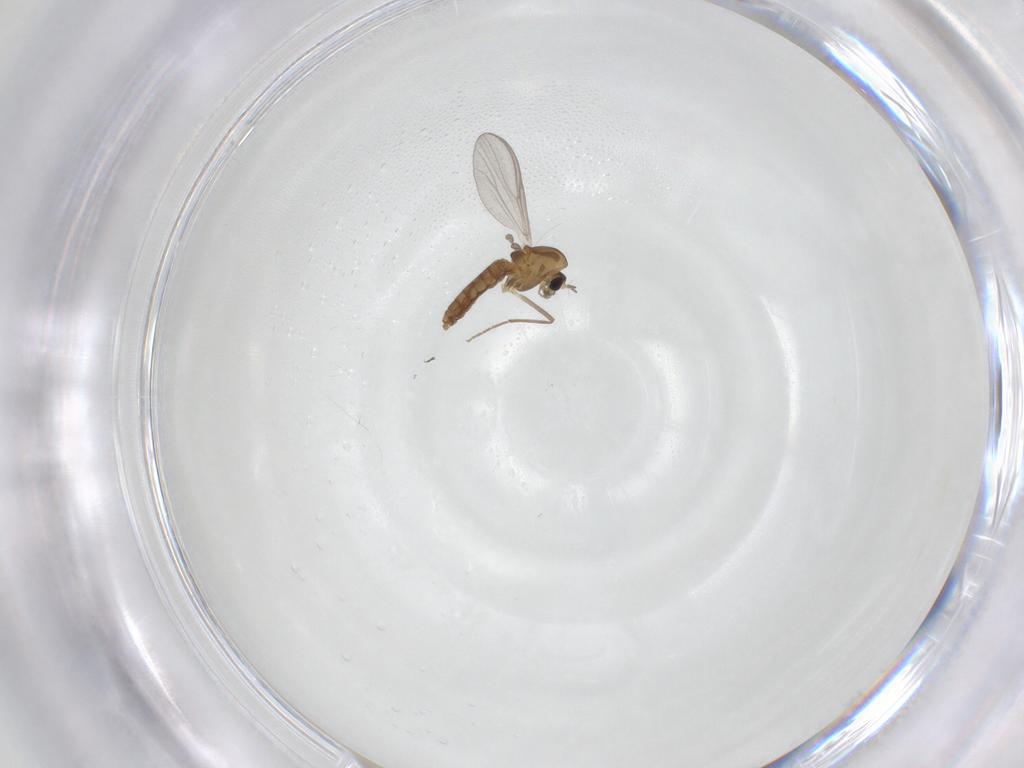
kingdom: Animalia
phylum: Arthropoda
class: Insecta
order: Diptera
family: Chironomidae
